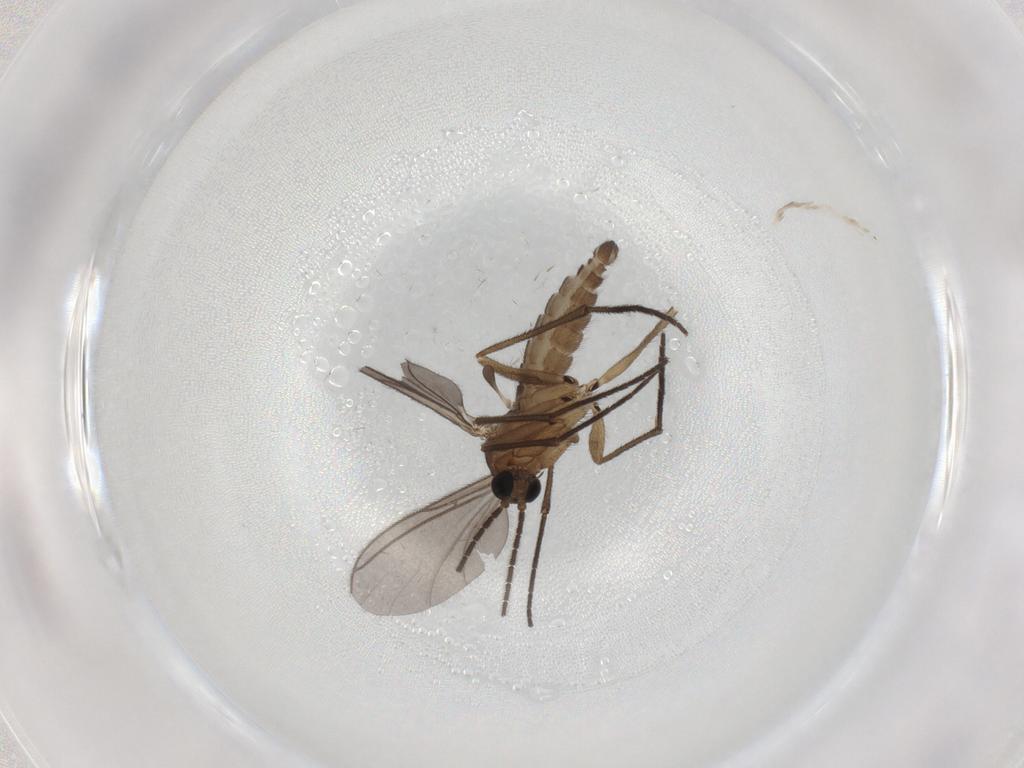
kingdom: Animalia
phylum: Arthropoda
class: Insecta
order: Diptera
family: Sciaridae
